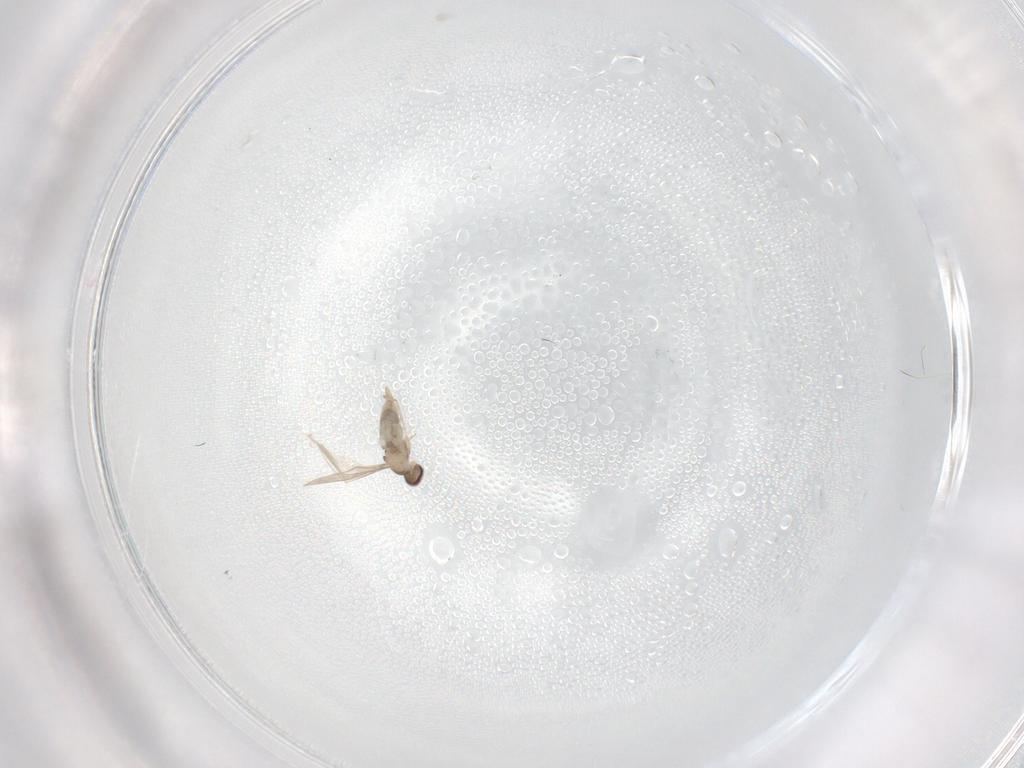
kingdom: Animalia
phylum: Arthropoda
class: Insecta
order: Diptera
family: Cecidomyiidae
